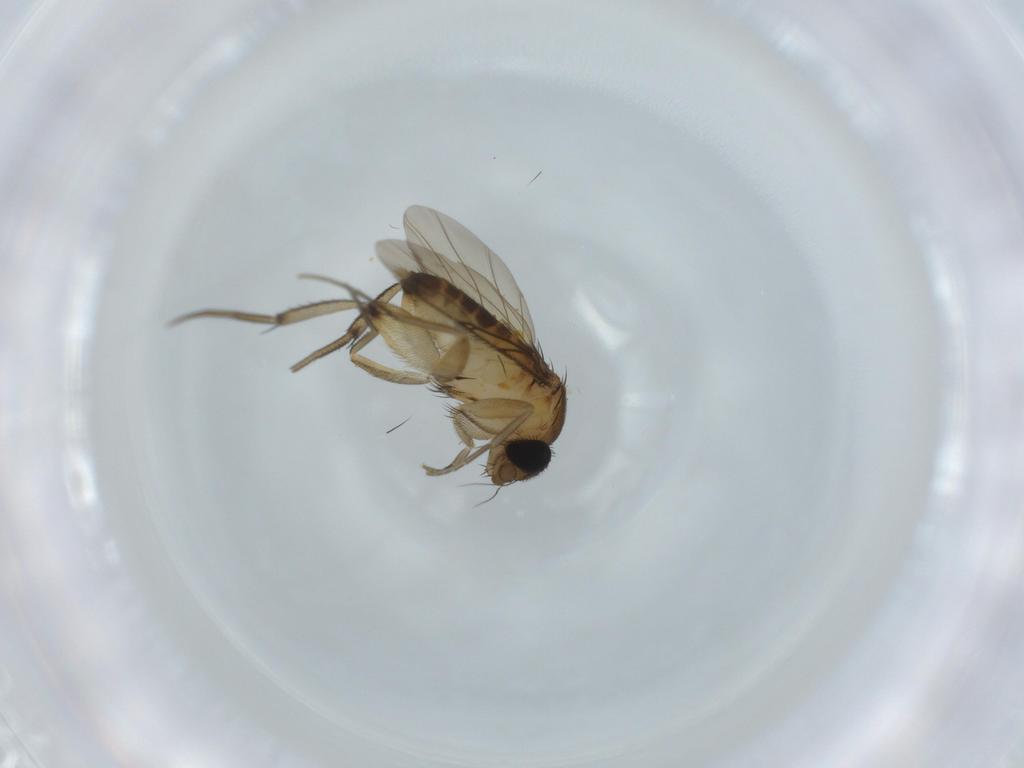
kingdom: Animalia
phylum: Arthropoda
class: Insecta
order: Diptera
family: Phoridae
